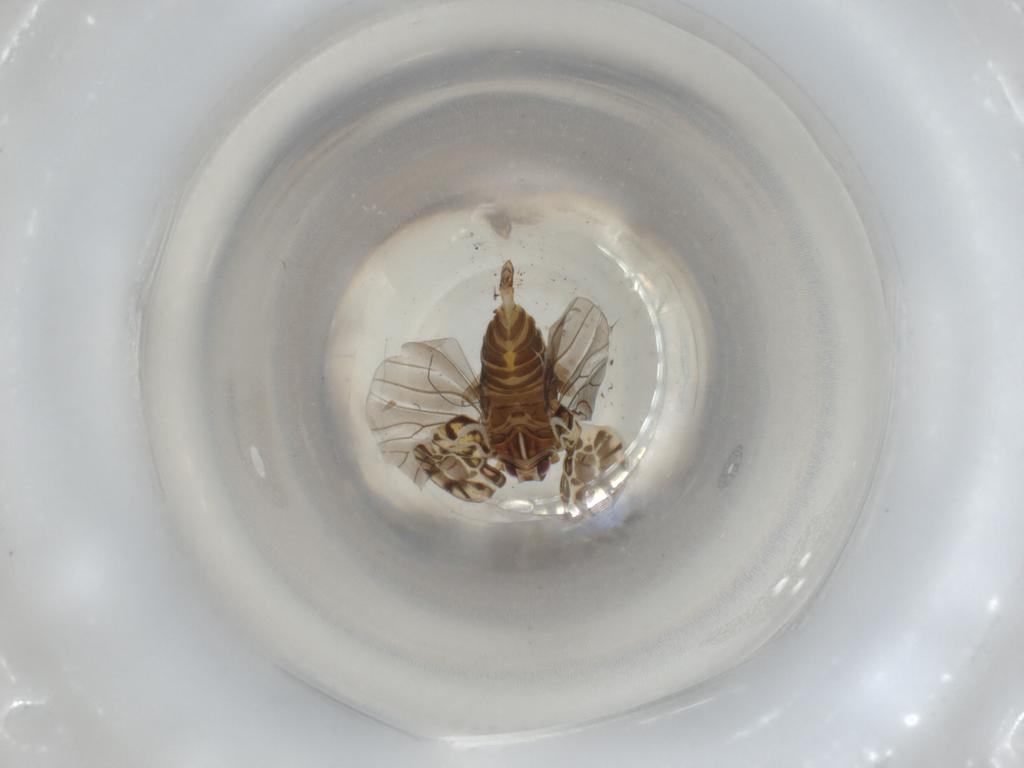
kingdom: Animalia
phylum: Arthropoda
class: Insecta
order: Hemiptera
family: Meenoplidae
